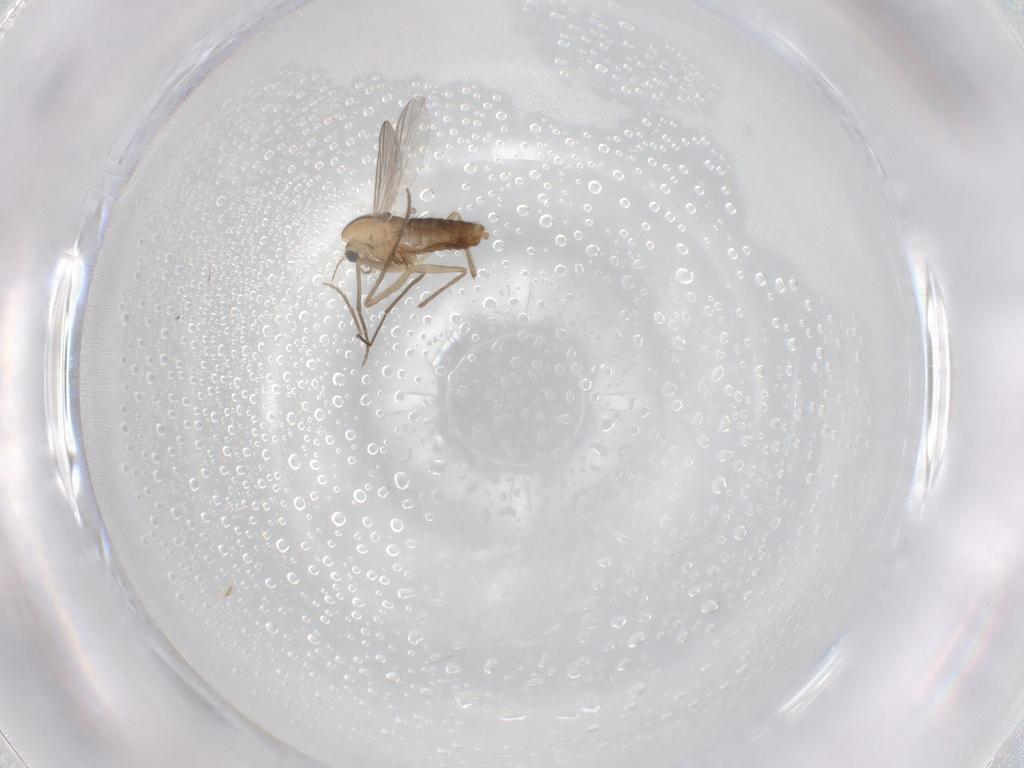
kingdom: Animalia
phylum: Arthropoda
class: Insecta
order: Diptera
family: Chironomidae
